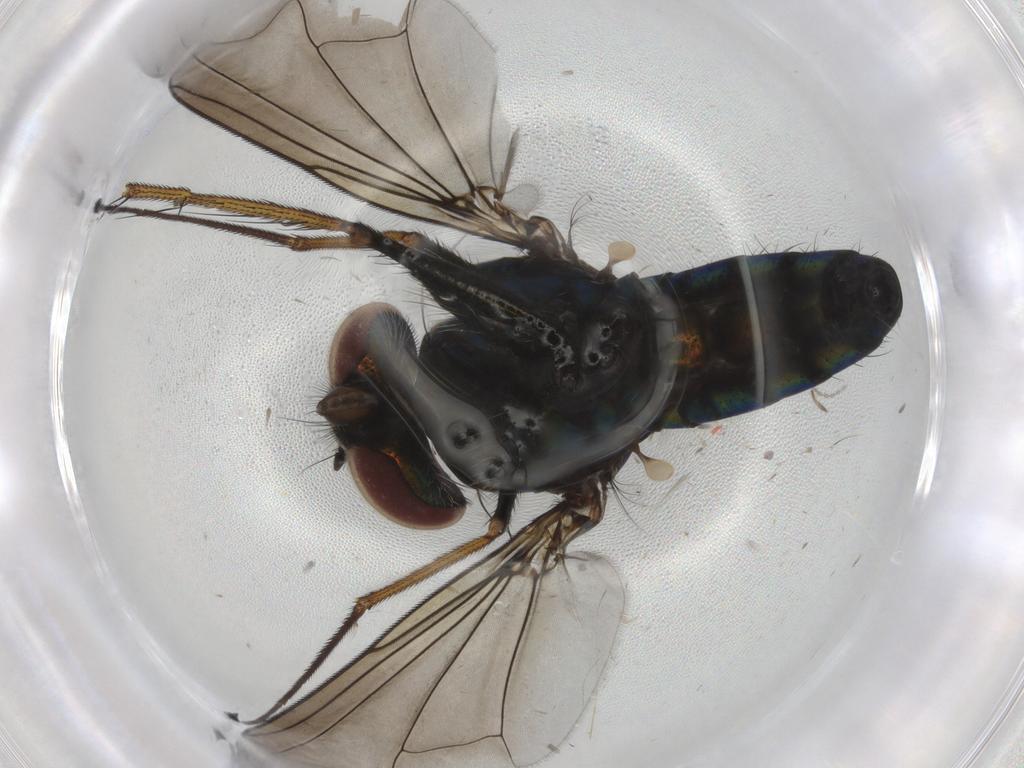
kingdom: Animalia
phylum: Arthropoda
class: Insecta
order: Diptera
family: Dolichopodidae
